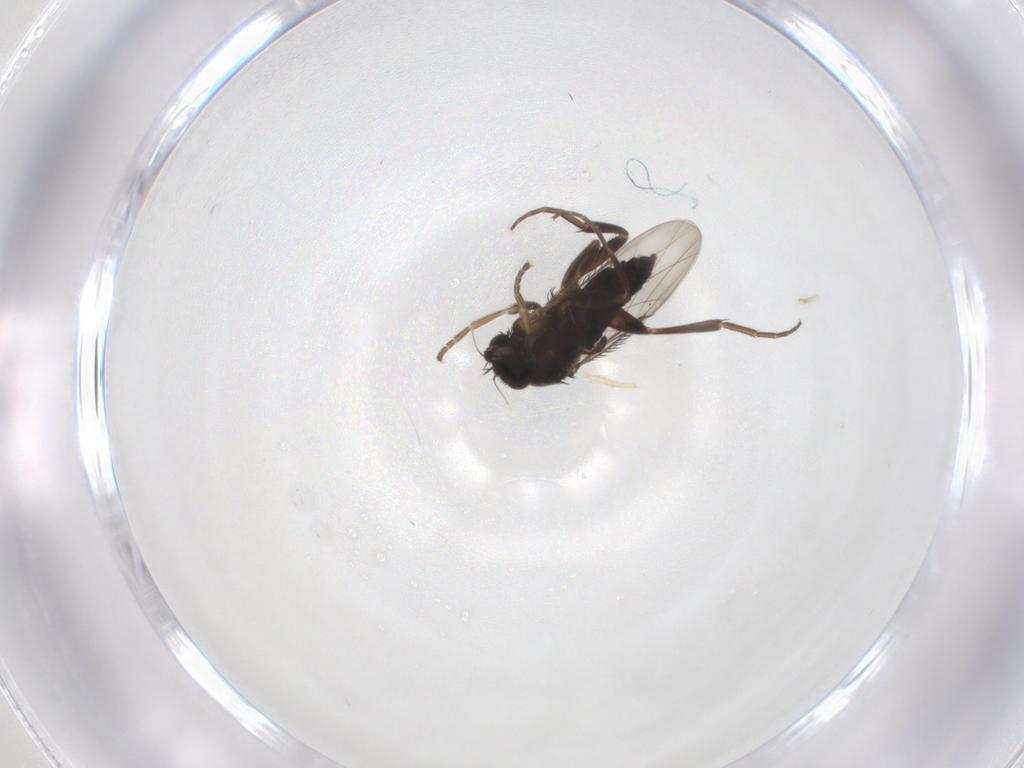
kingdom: Animalia
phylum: Arthropoda
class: Insecta
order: Diptera
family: Phoridae
